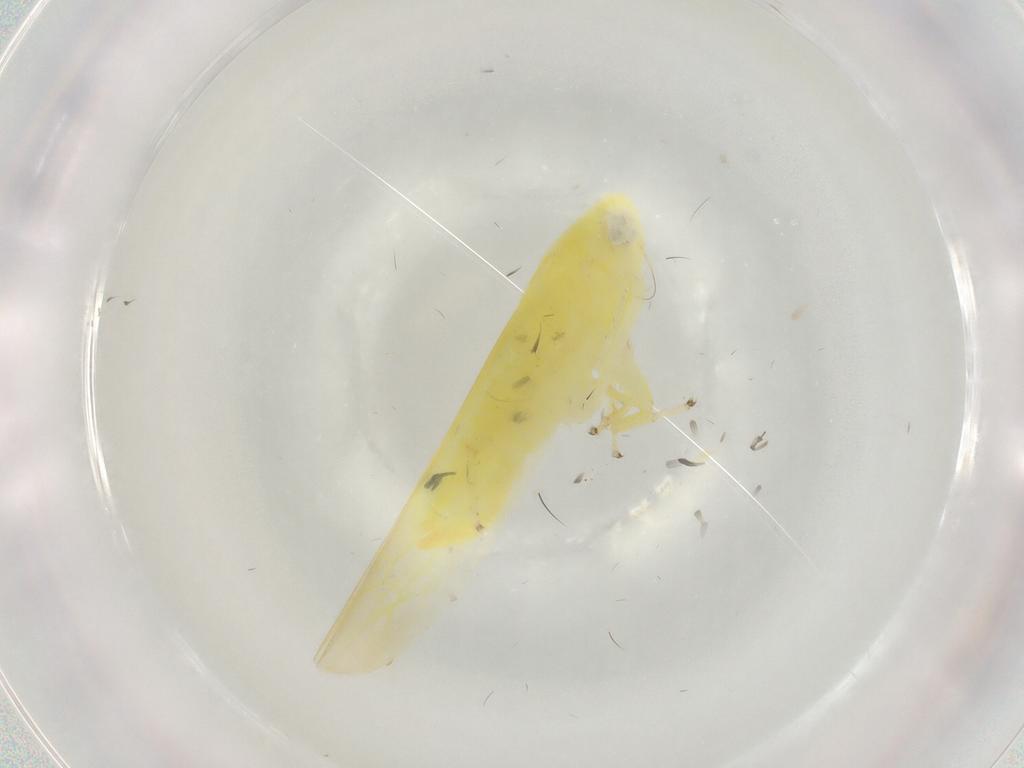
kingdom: Animalia
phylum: Arthropoda
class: Insecta
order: Hemiptera
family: Cicadellidae
